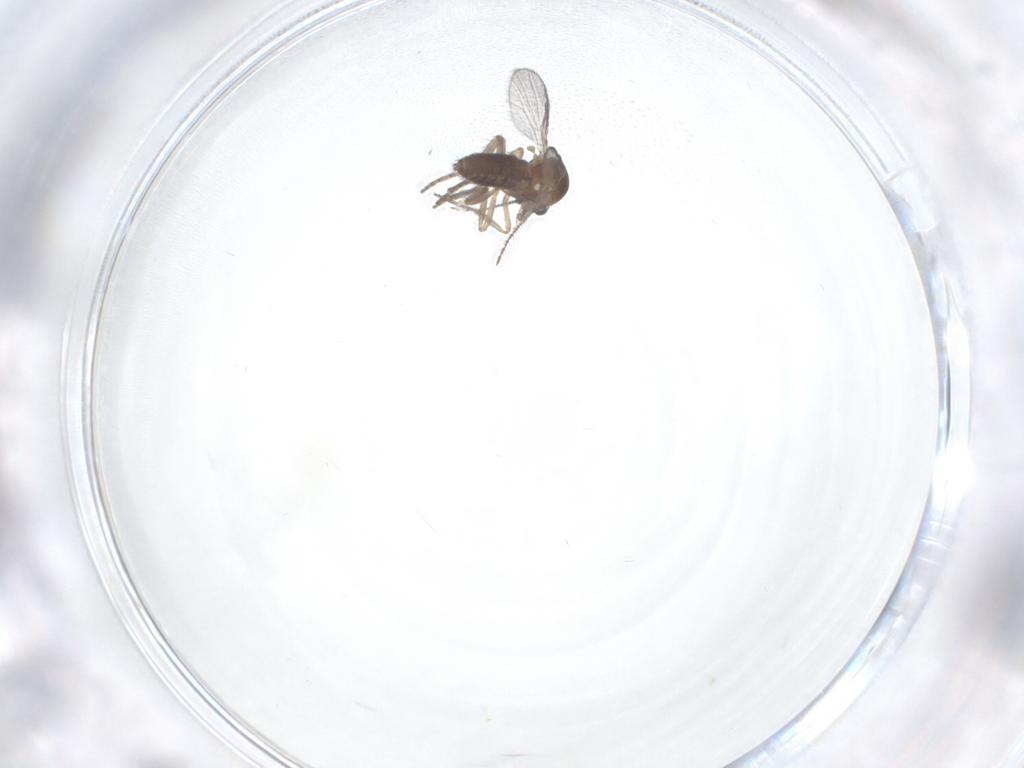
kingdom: Animalia
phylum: Arthropoda
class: Insecta
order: Diptera
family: Ceratopogonidae
